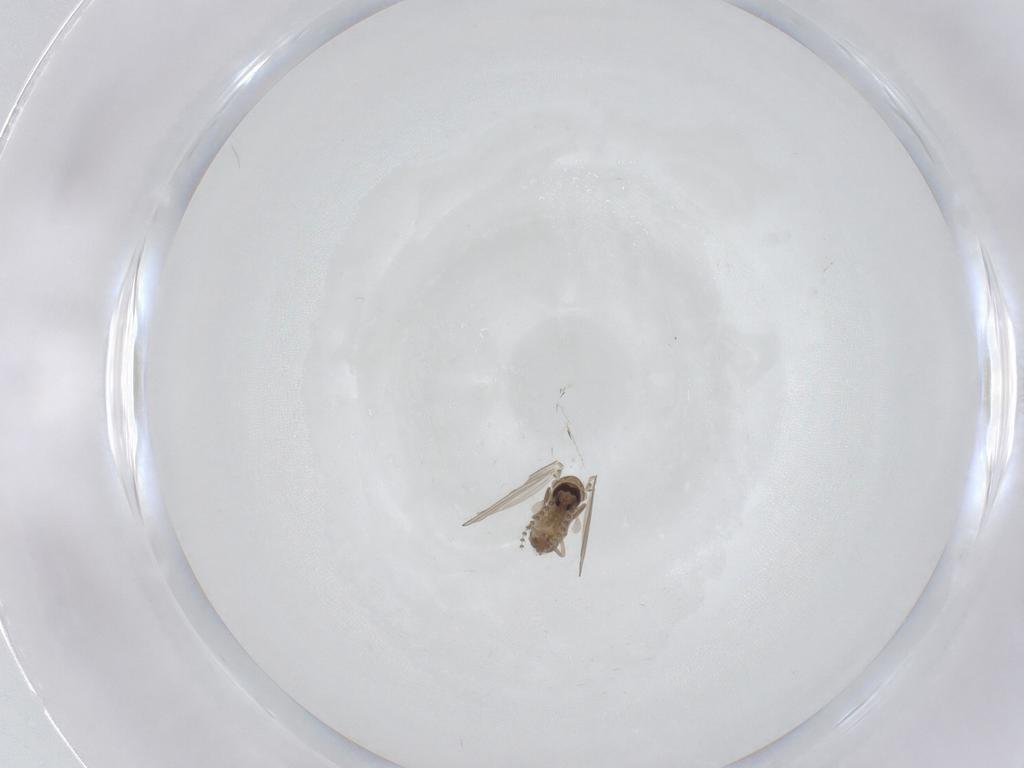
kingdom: Animalia
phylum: Arthropoda
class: Insecta
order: Diptera
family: Psychodidae
